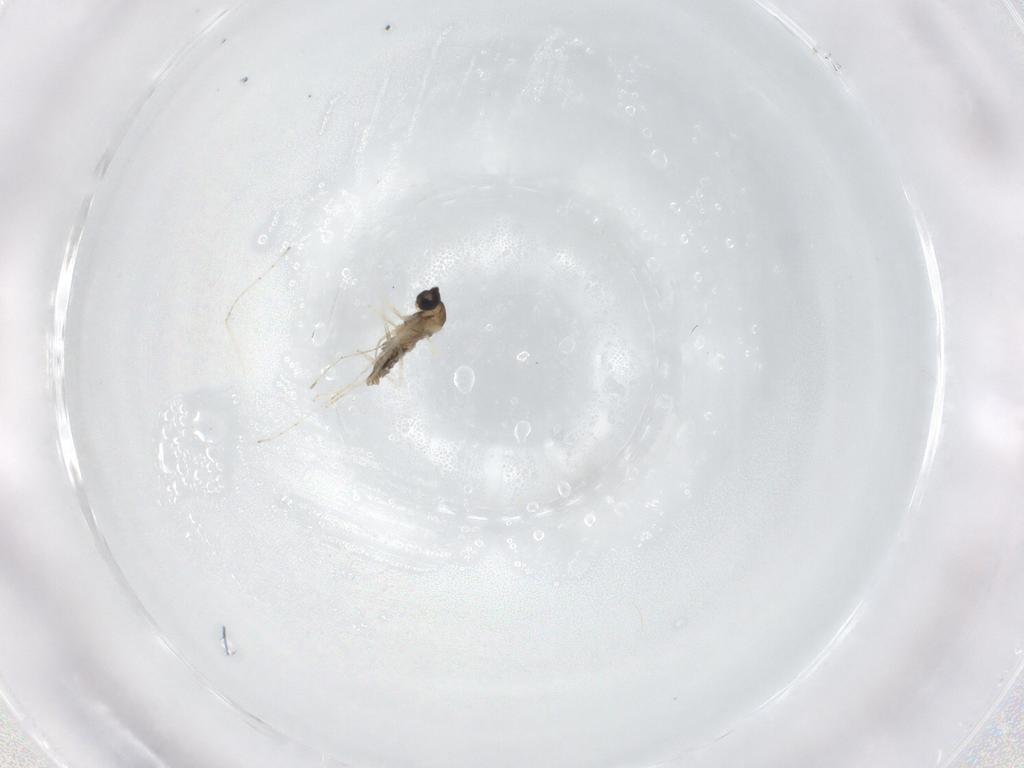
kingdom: Animalia
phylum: Arthropoda
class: Insecta
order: Diptera
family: Cecidomyiidae
